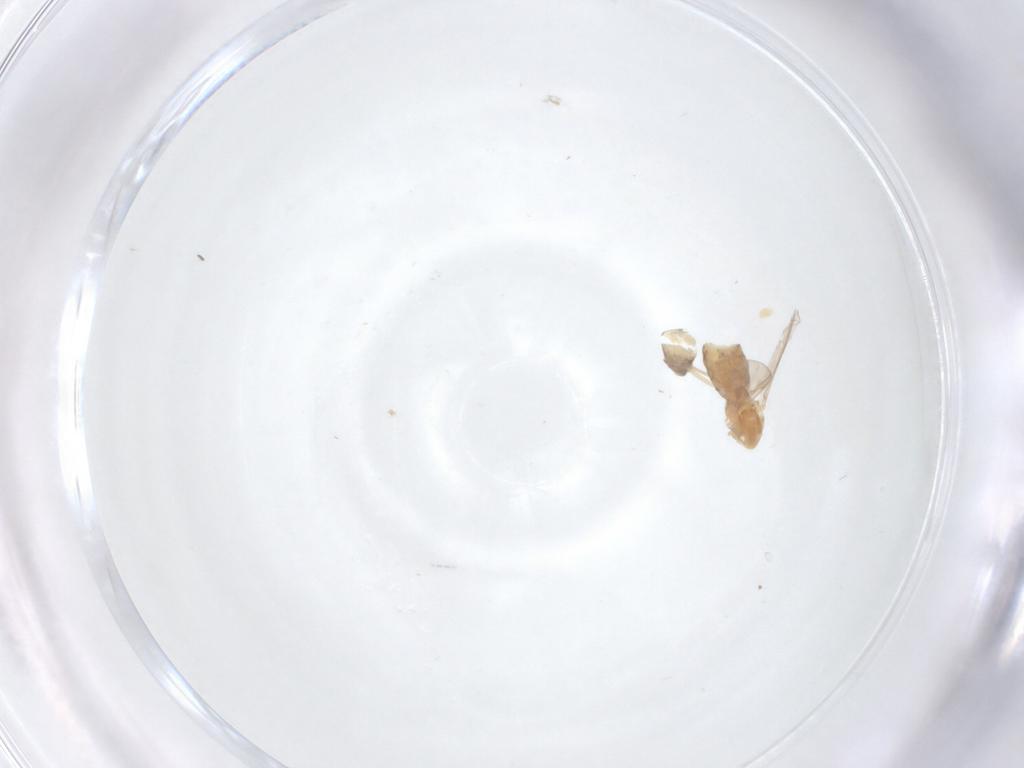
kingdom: Animalia
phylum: Arthropoda
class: Insecta
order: Diptera
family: Chironomidae
